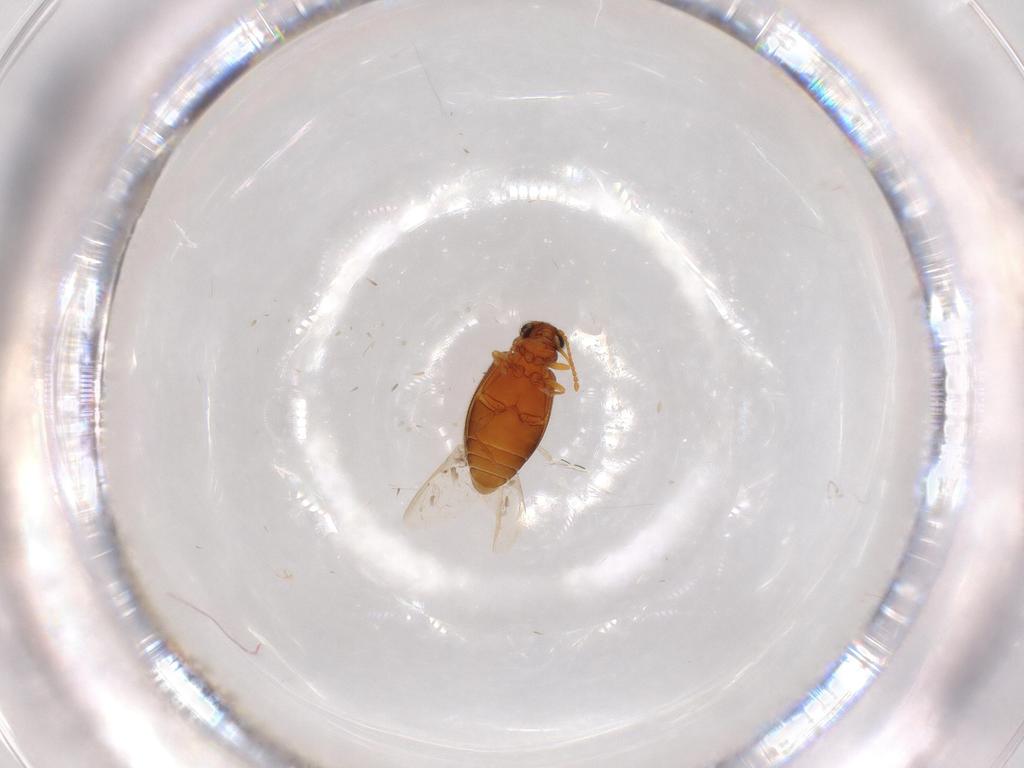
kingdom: Animalia
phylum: Arthropoda
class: Insecta
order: Coleoptera
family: Aderidae
